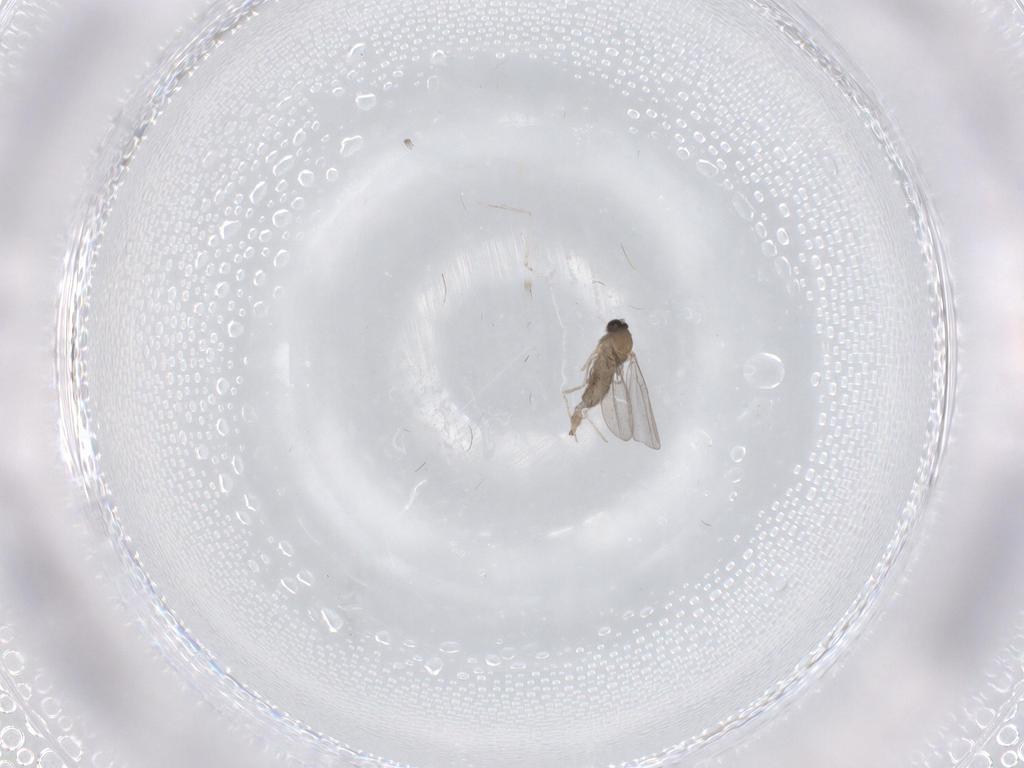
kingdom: Animalia
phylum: Arthropoda
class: Insecta
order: Diptera
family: Cecidomyiidae
